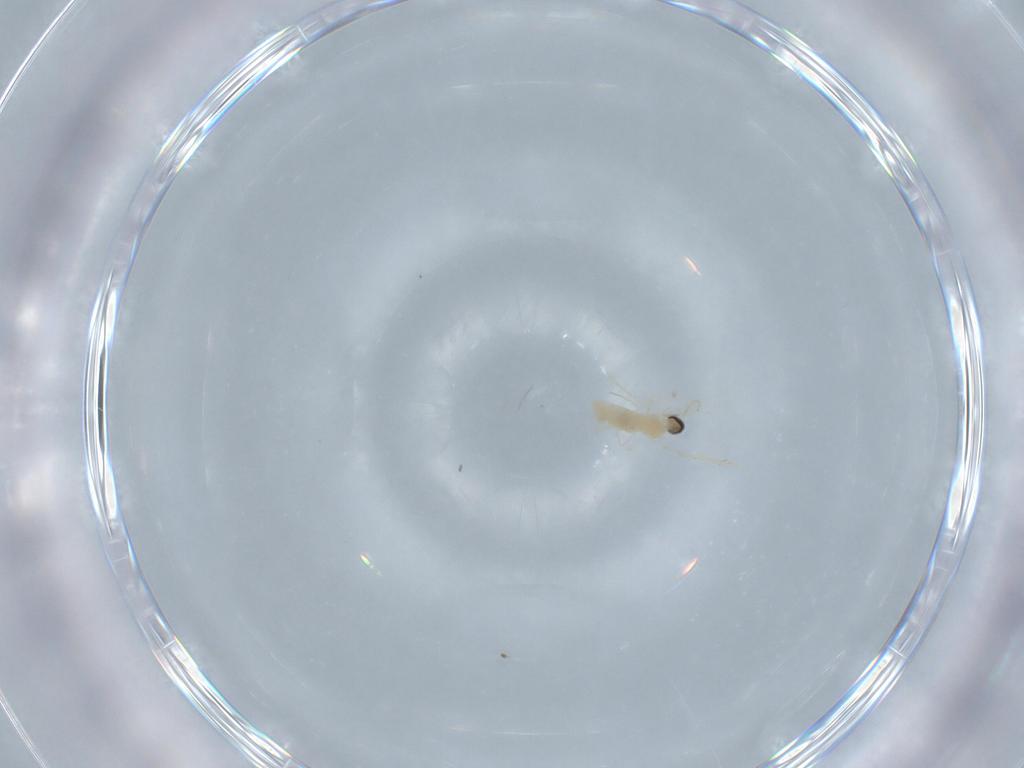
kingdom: Animalia
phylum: Arthropoda
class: Insecta
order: Diptera
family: Cecidomyiidae
